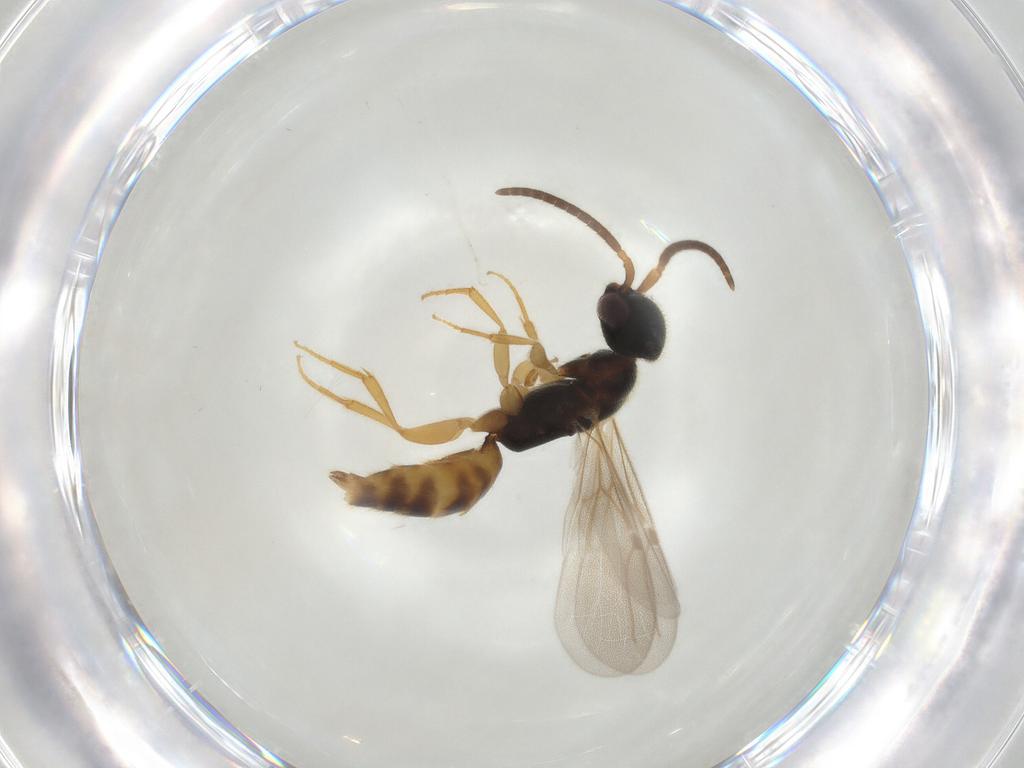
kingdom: Animalia
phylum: Arthropoda
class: Insecta
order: Hymenoptera
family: Bethylidae
